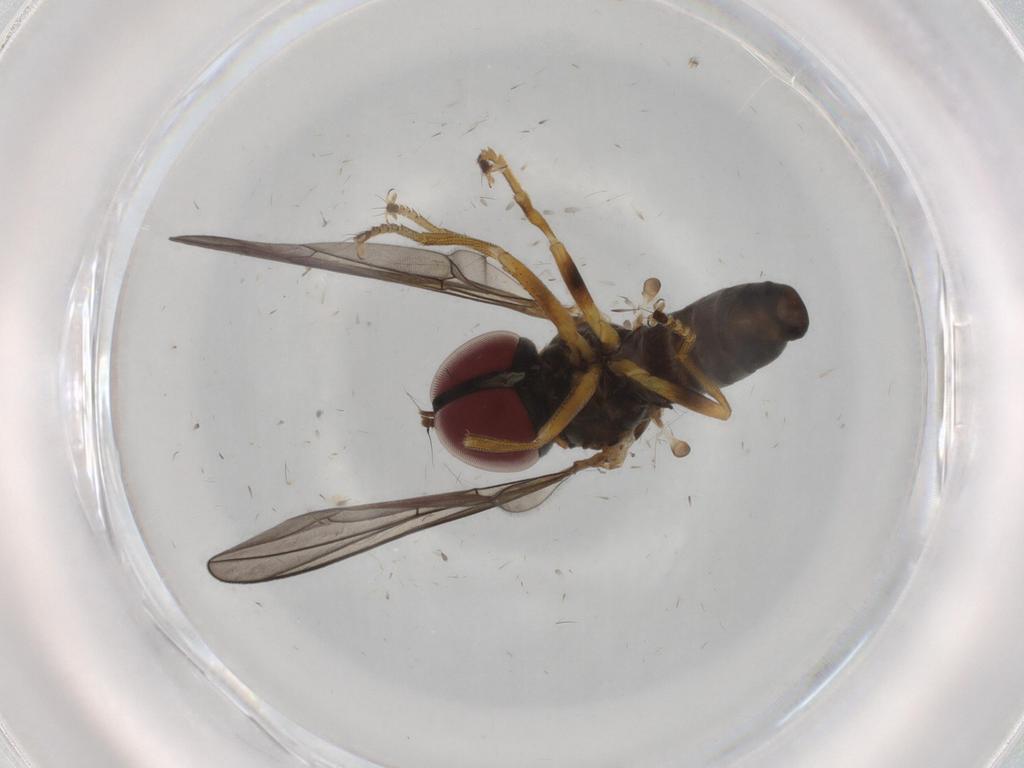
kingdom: Animalia
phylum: Arthropoda
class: Insecta
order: Diptera
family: Pipunculidae
